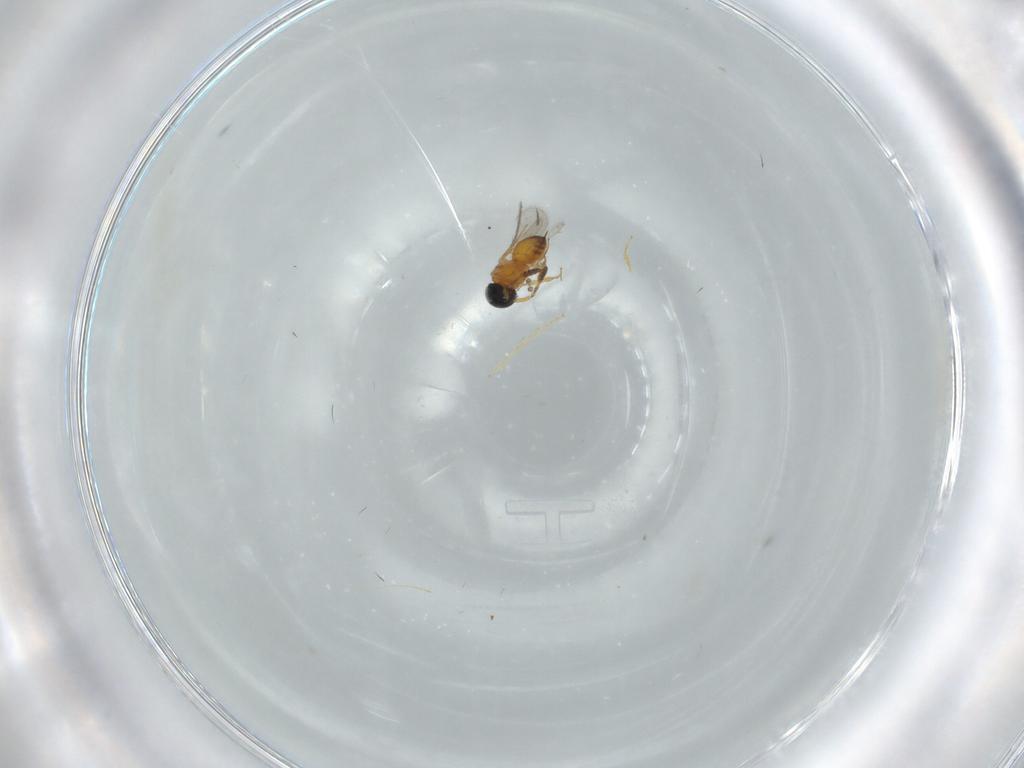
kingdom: Animalia
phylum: Arthropoda
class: Insecta
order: Hymenoptera
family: Scelionidae
